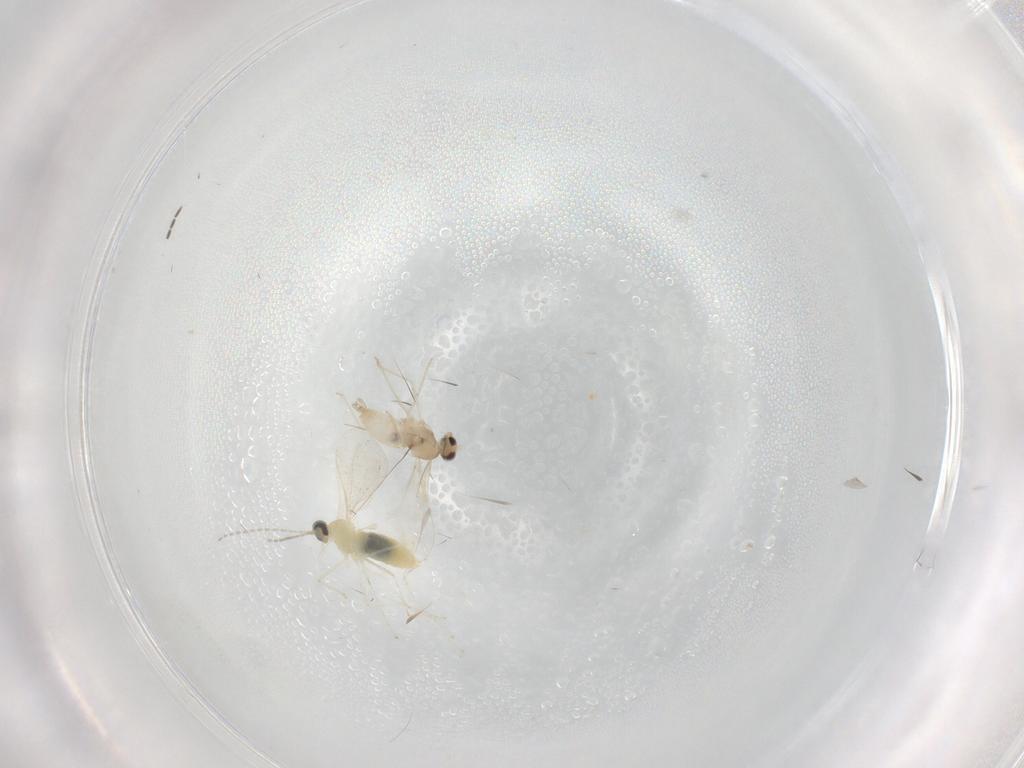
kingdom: Animalia
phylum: Arthropoda
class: Insecta
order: Diptera
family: Cecidomyiidae
